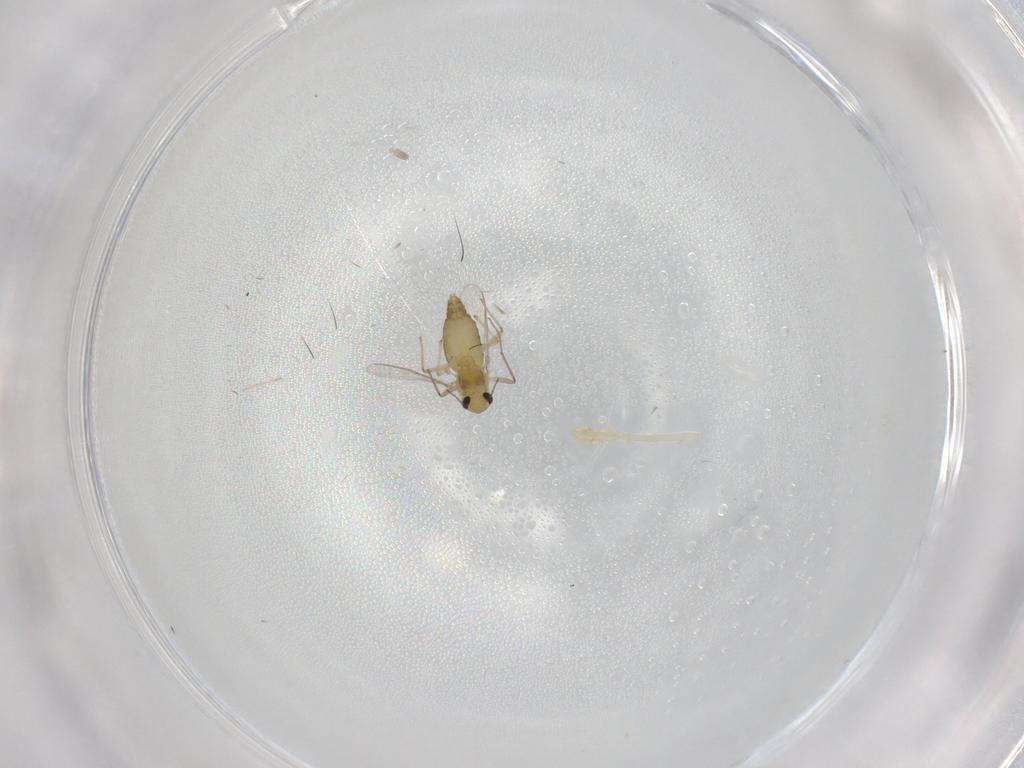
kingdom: Animalia
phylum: Arthropoda
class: Insecta
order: Diptera
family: Chironomidae
